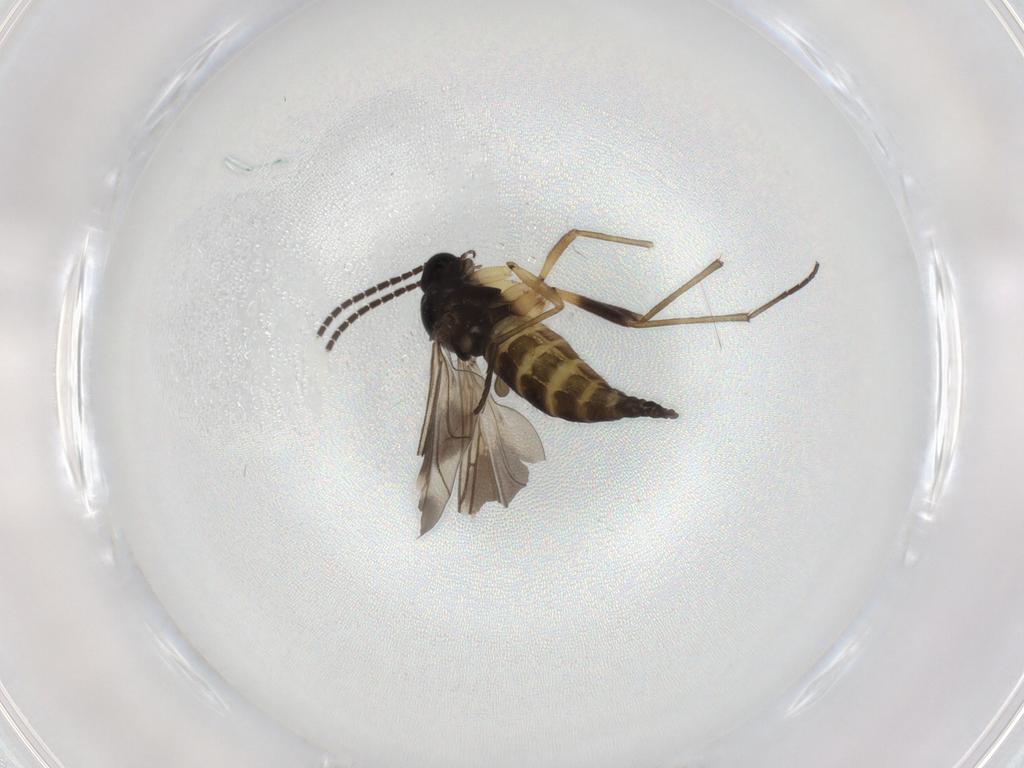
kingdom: Animalia
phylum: Arthropoda
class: Insecta
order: Diptera
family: Sciaridae
